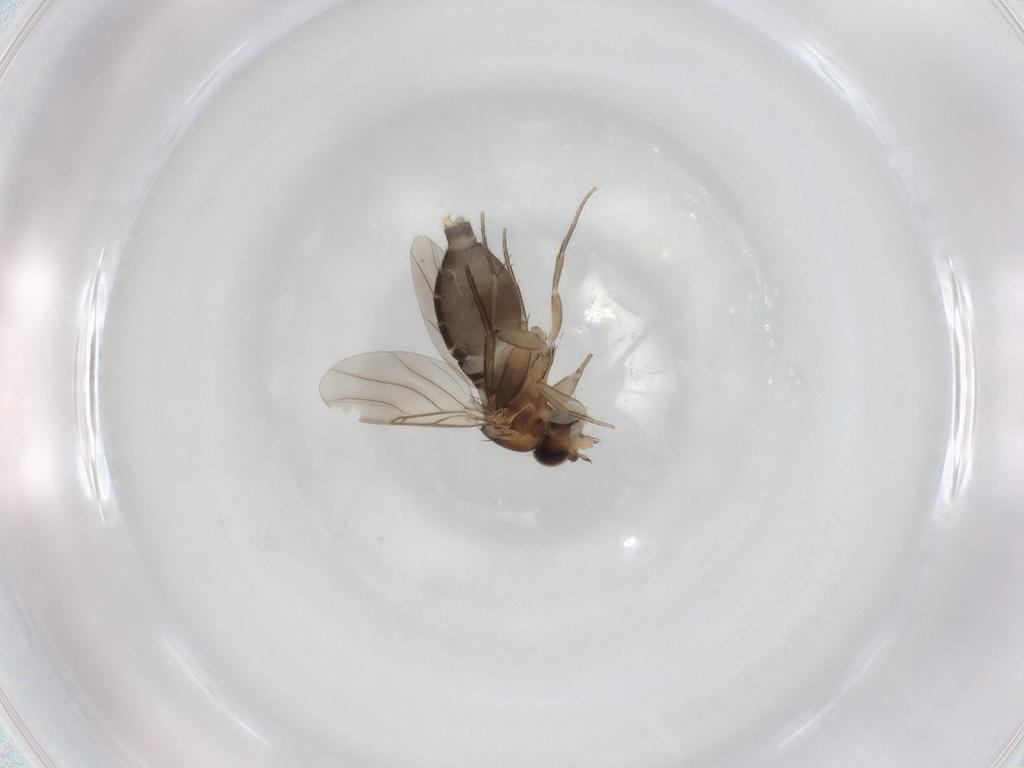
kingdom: Animalia
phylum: Arthropoda
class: Insecta
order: Diptera
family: Phoridae
